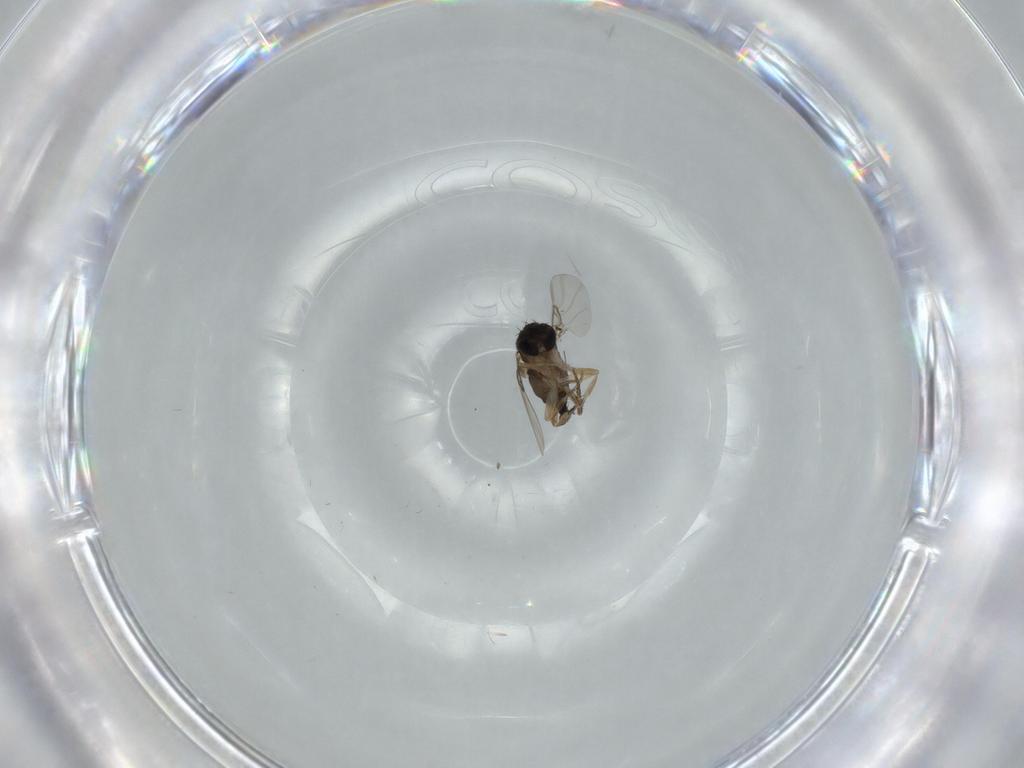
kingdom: Animalia
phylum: Arthropoda
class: Insecta
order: Diptera
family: Phoridae
